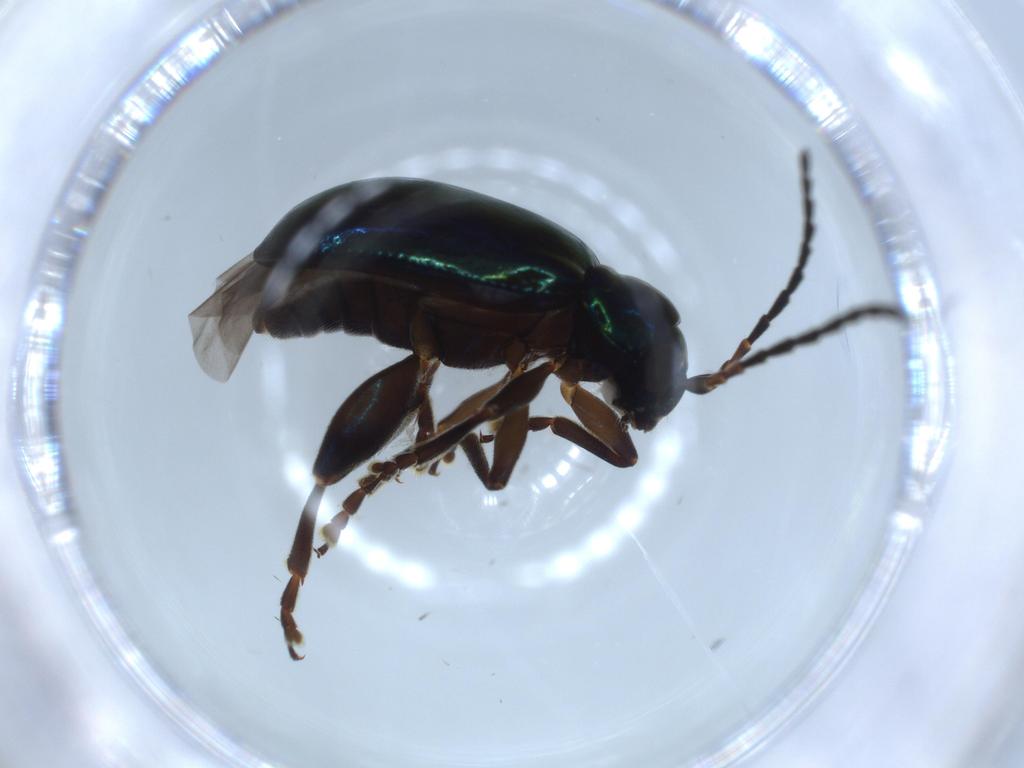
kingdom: Animalia
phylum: Arthropoda
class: Insecta
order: Coleoptera
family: Chrysomelidae
